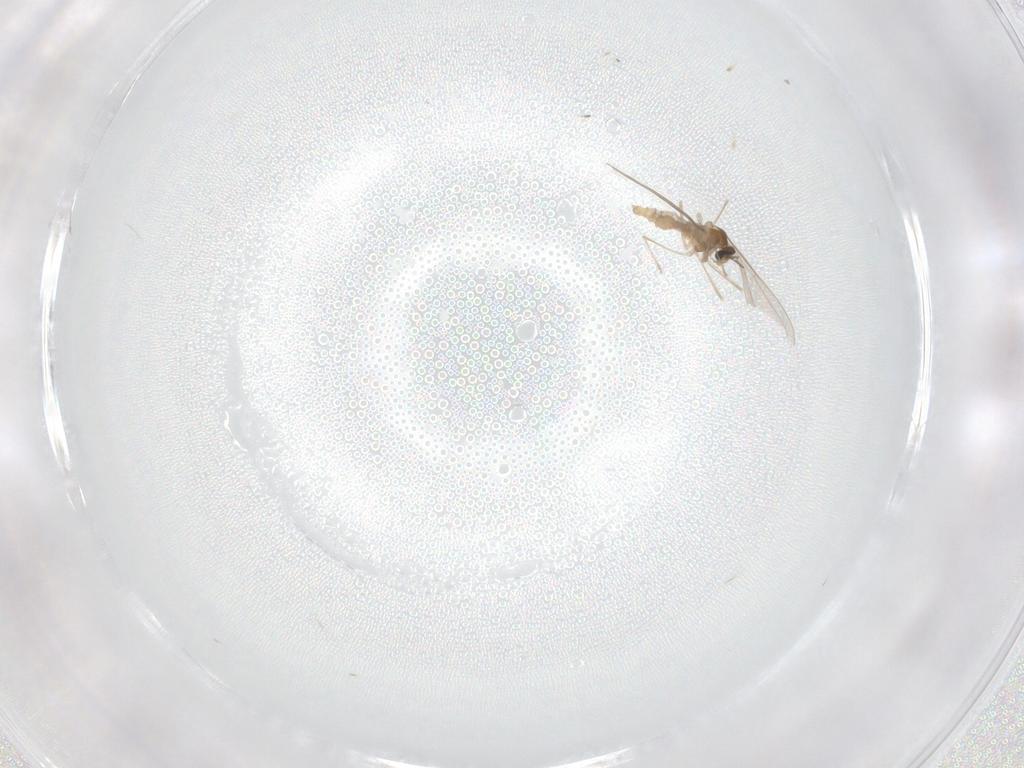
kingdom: Animalia
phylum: Arthropoda
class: Insecta
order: Diptera
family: Cecidomyiidae
